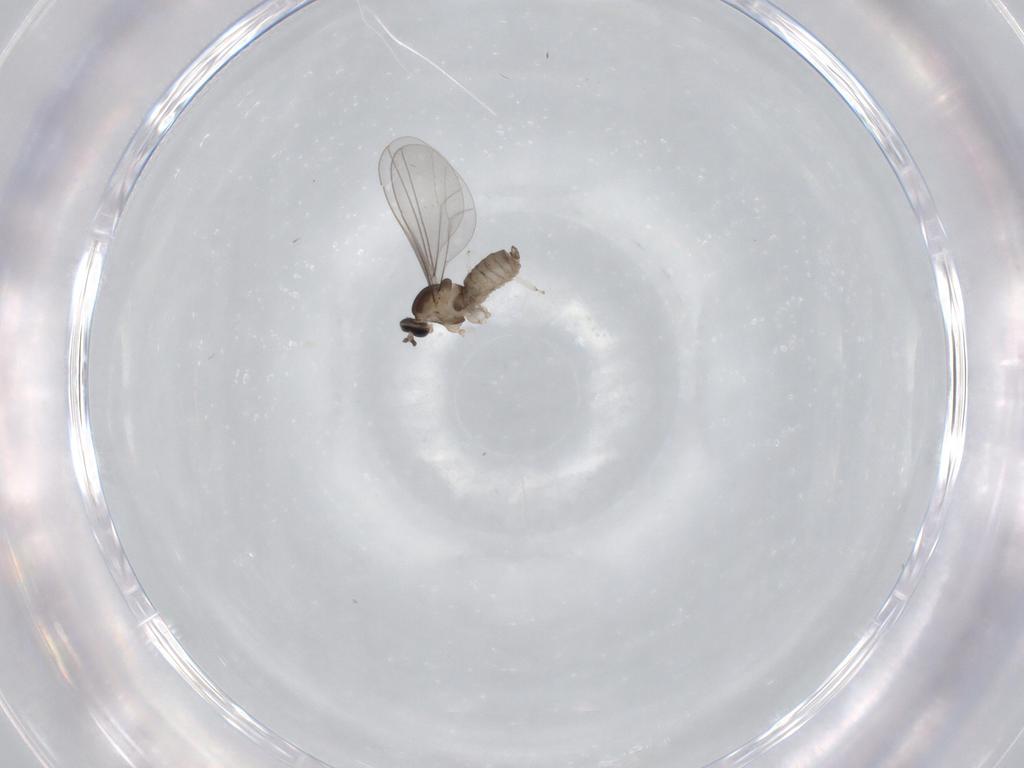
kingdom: Animalia
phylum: Arthropoda
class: Insecta
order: Diptera
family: Cecidomyiidae
